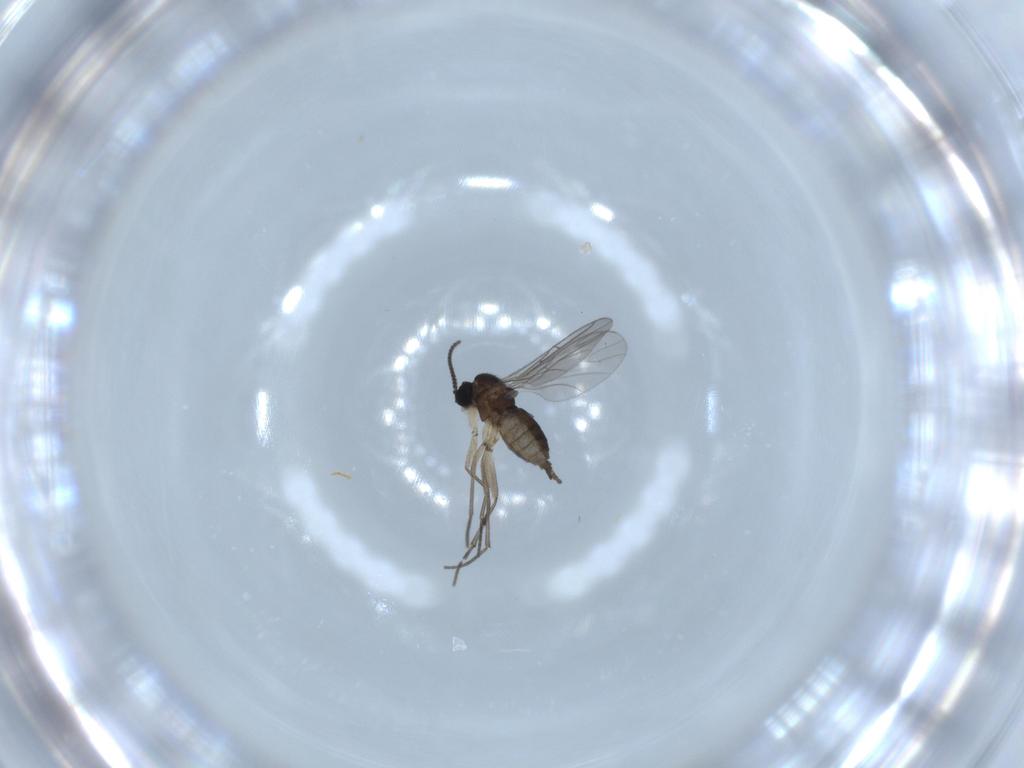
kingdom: Animalia
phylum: Arthropoda
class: Insecta
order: Diptera
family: Sciaridae
